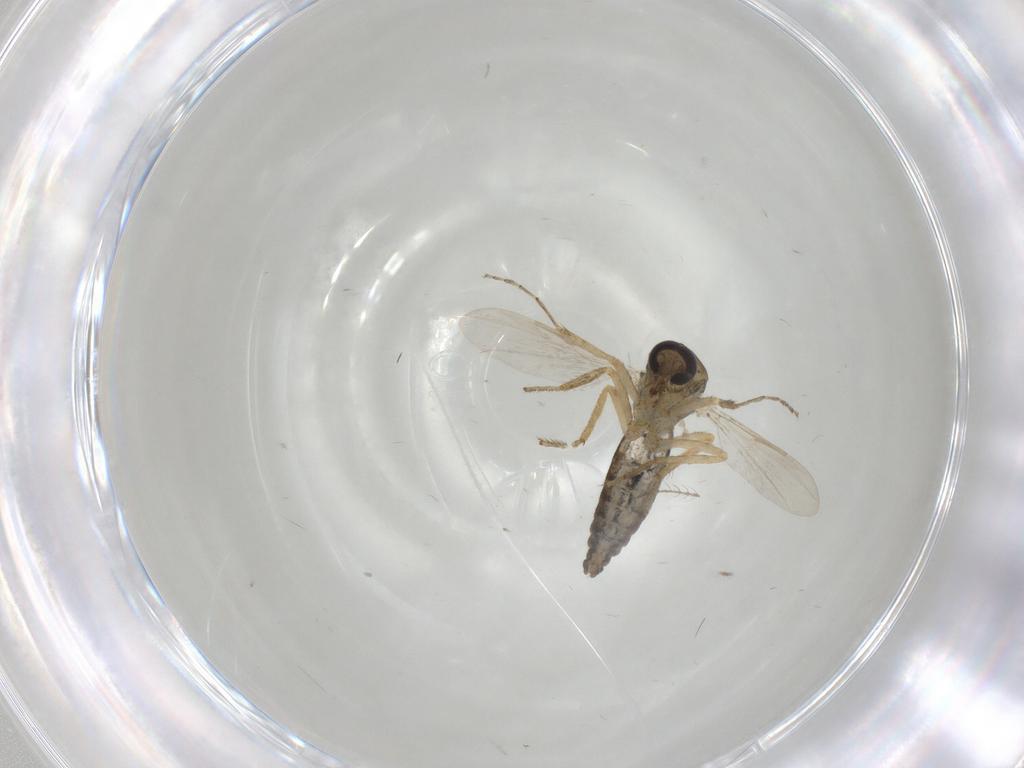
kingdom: Animalia
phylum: Arthropoda
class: Insecta
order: Diptera
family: Ceratopogonidae
